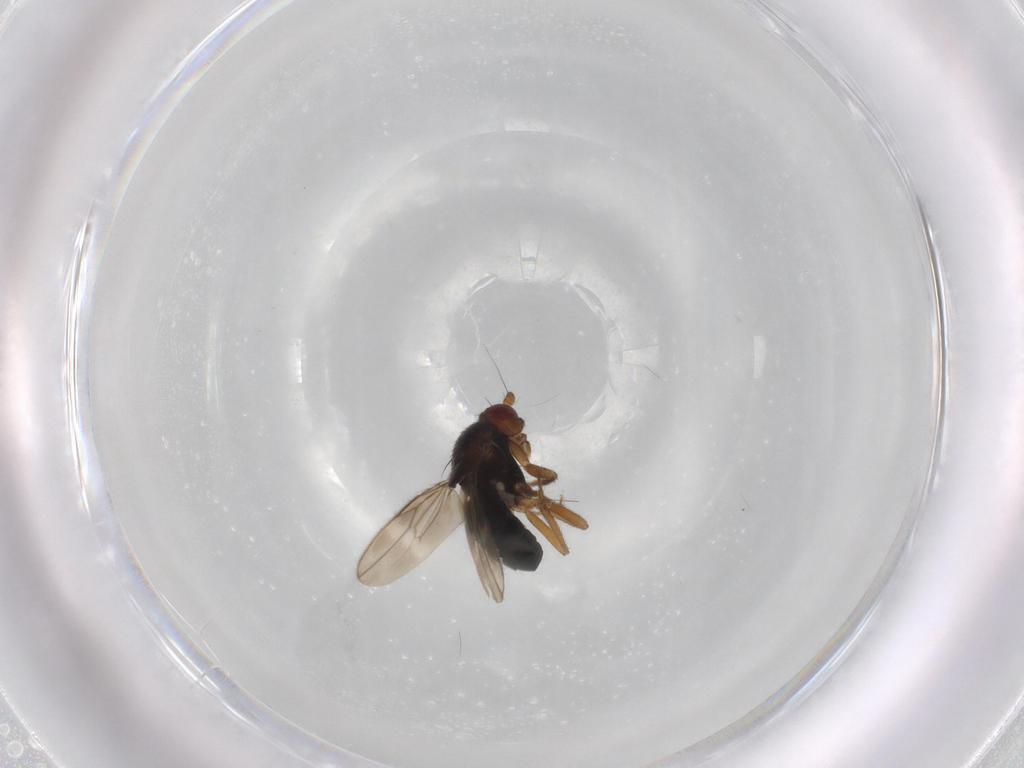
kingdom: Animalia
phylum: Arthropoda
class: Insecta
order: Diptera
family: Sphaeroceridae
